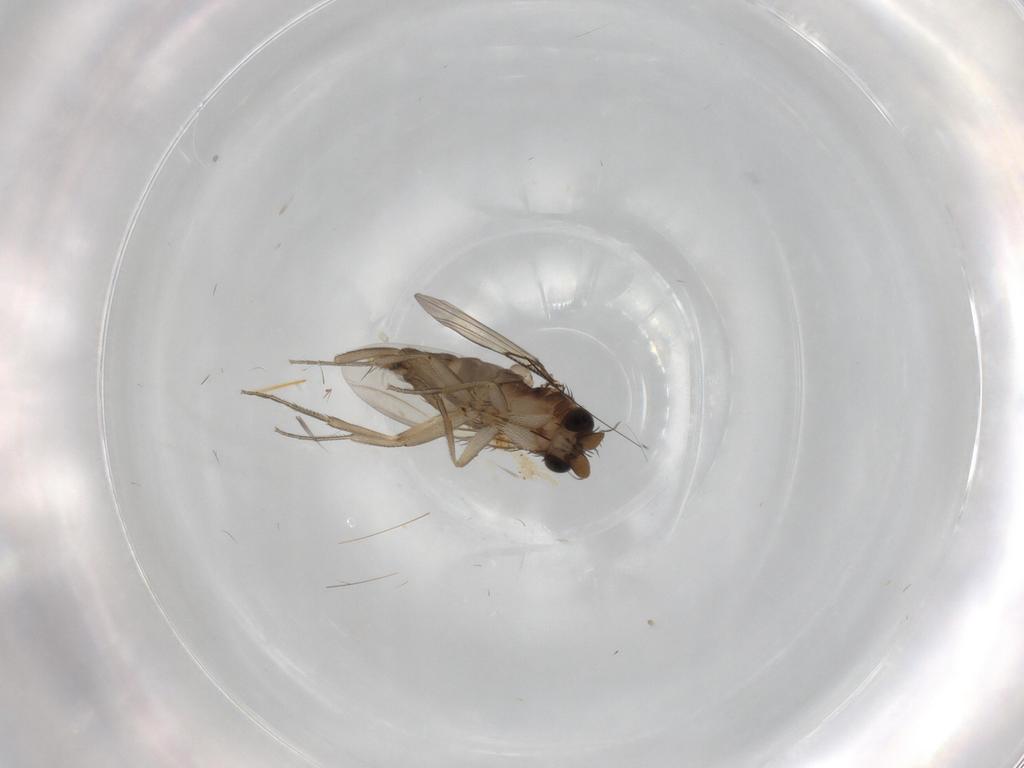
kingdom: Animalia
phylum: Arthropoda
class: Insecta
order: Diptera
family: Phoridae
